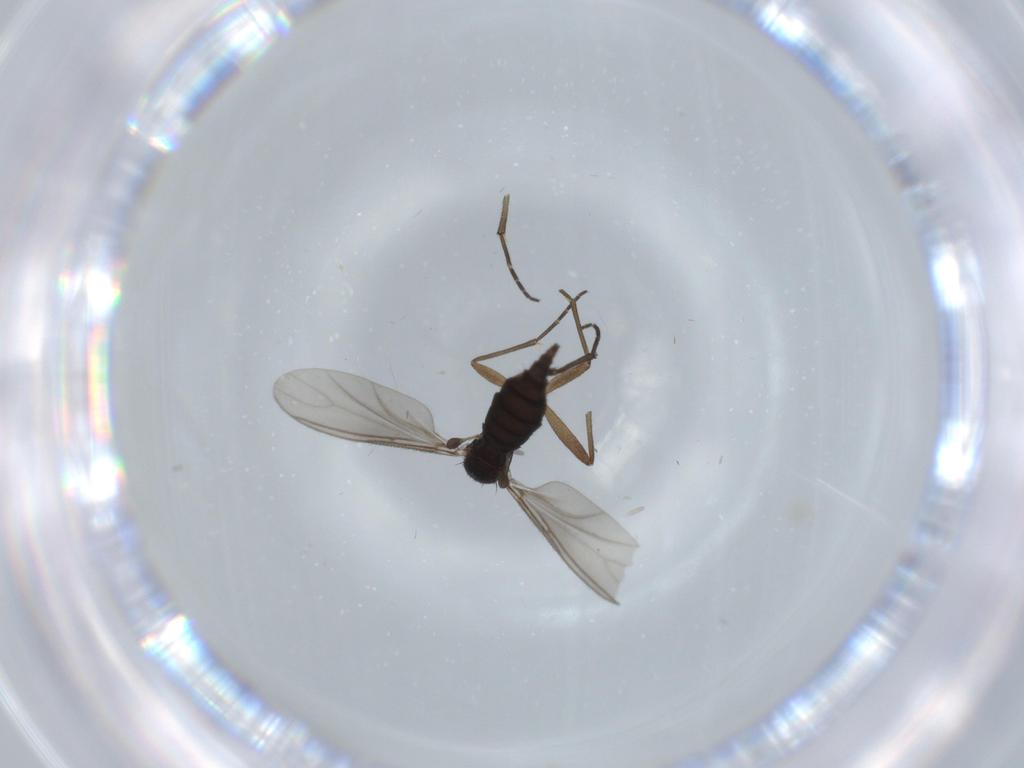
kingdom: Animalia
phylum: Arthropoda
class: Insecta
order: Diptera
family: Sciaridae
